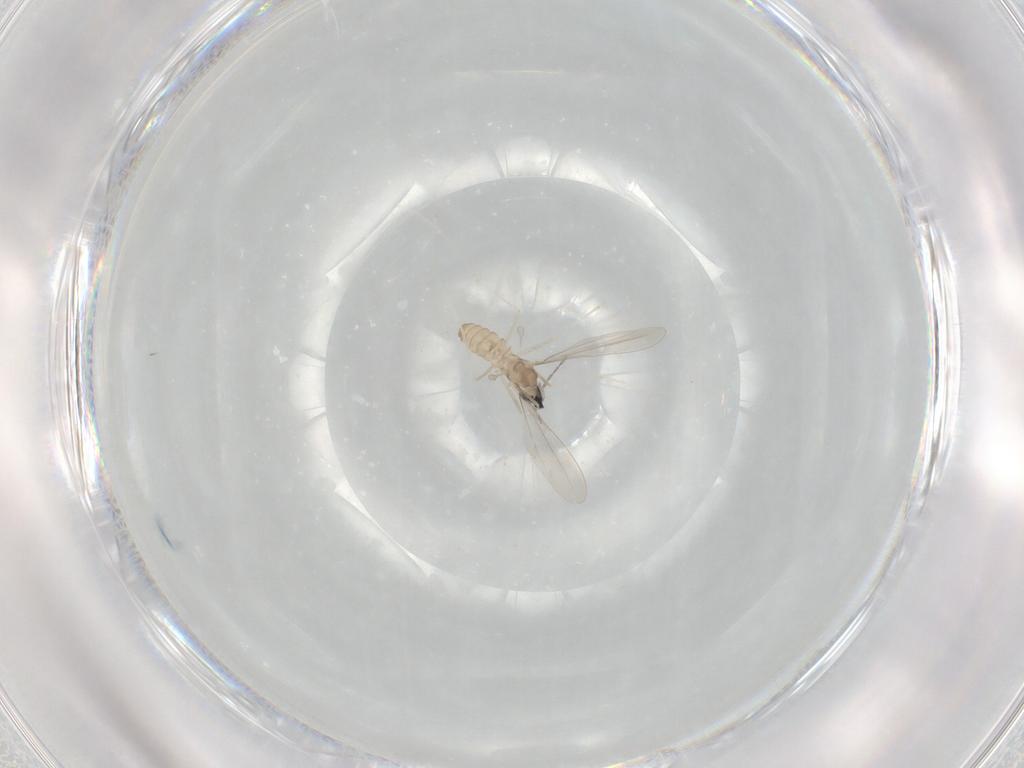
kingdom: Animalia
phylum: Arthropoda
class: Insecta
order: Diptera
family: Cecidomyiidae
